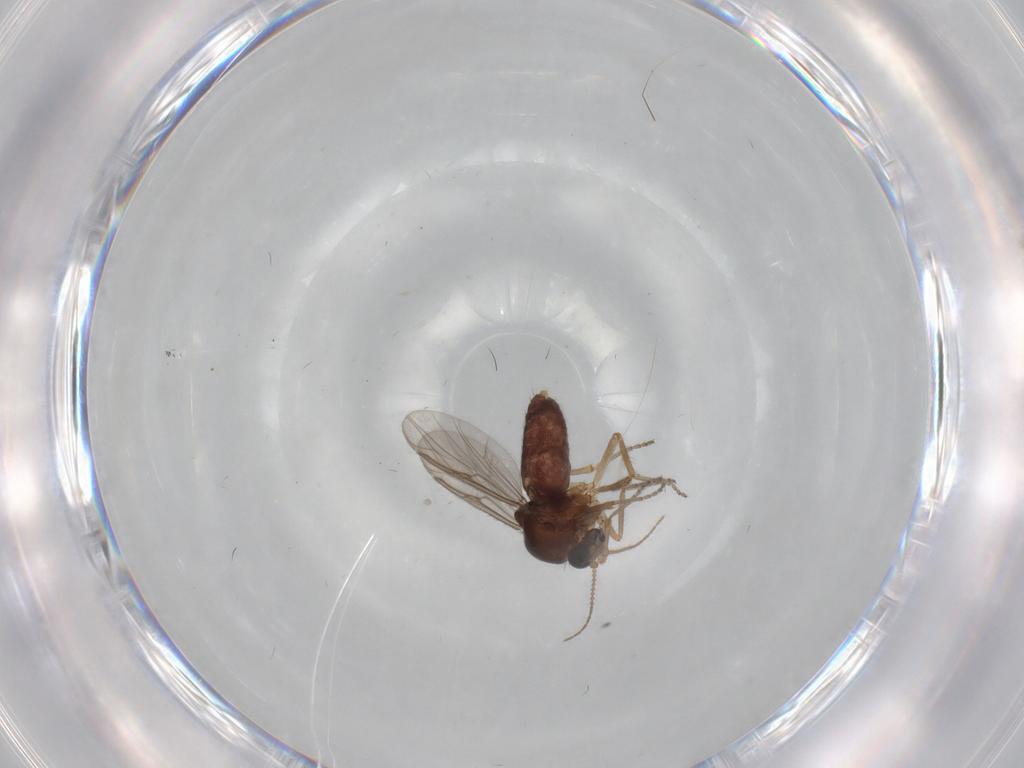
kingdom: Animalia
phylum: Arthropoda
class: Insecta
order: Diptera
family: Ceratopogonidae
